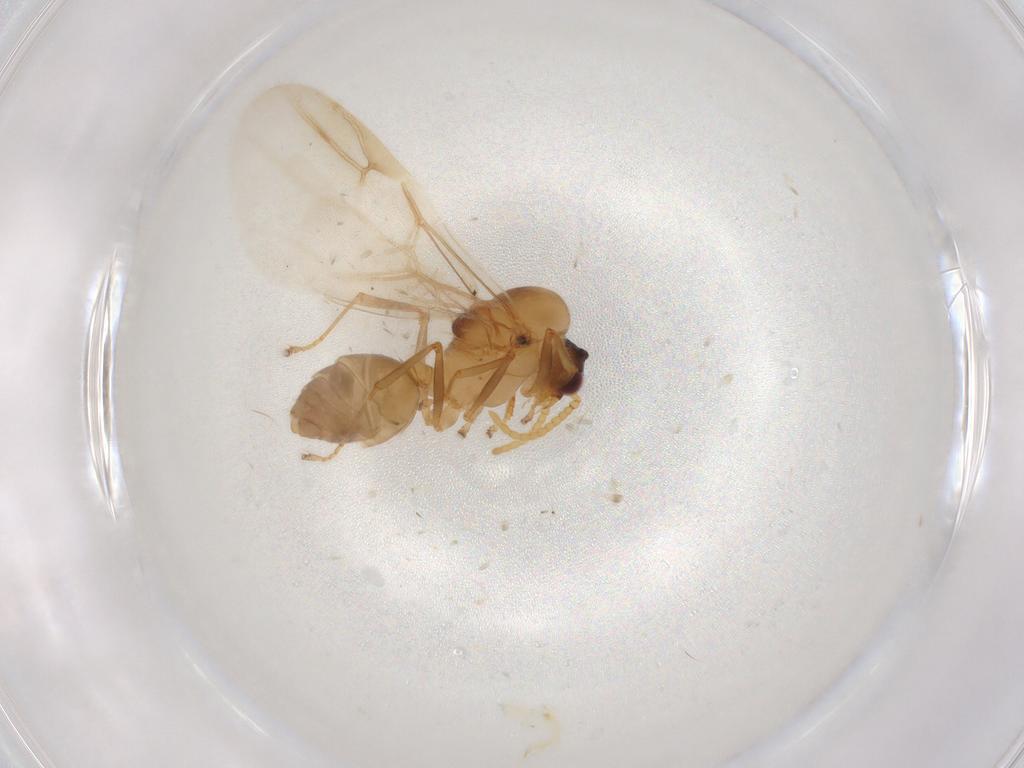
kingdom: Animalia
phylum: Arthropoda
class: Insecta
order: Hymenoptera
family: Formicidae
